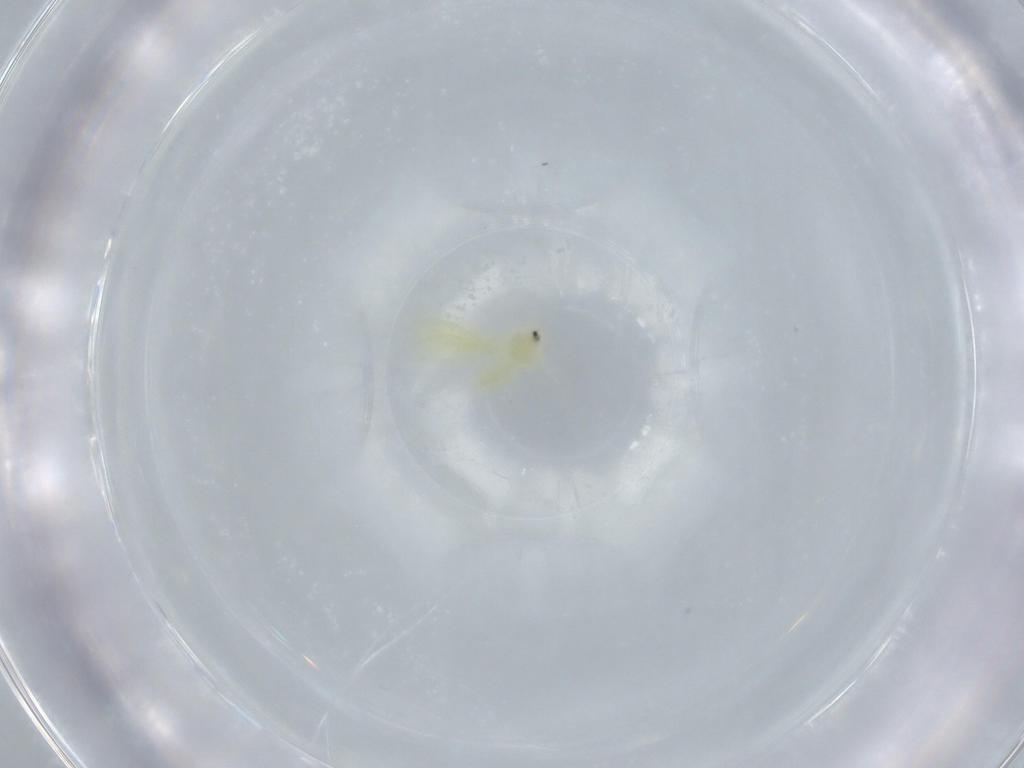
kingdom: Animalia
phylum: Arthropoda
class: Insecta
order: Hemiptera
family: Aleyrodidae
